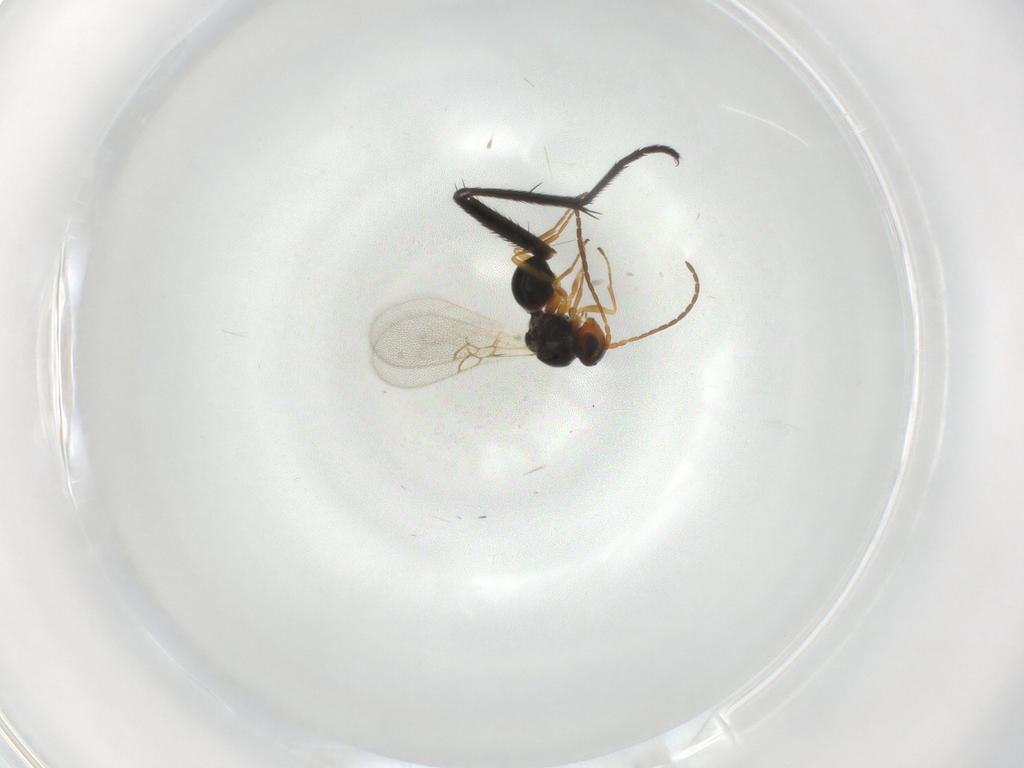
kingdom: Animalia
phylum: Arthropoda
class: Insecta
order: Hymenoptera
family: Figitidae
